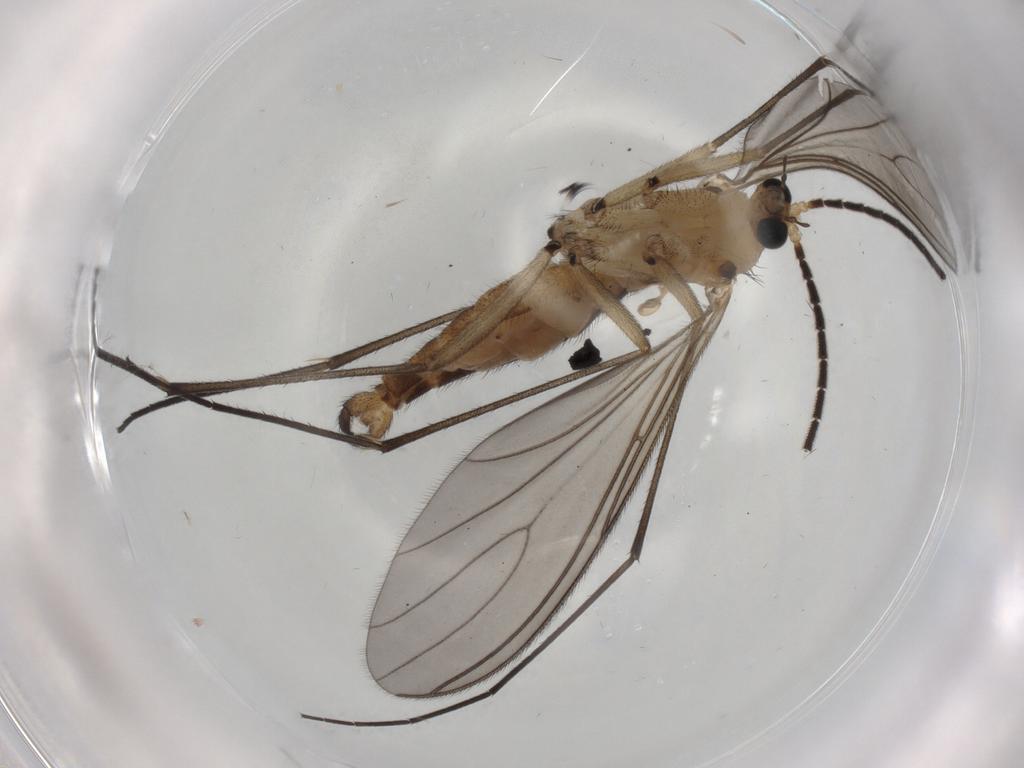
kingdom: Animalia
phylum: Arthropoda
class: Insecta
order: Diptera
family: Sciaridae
